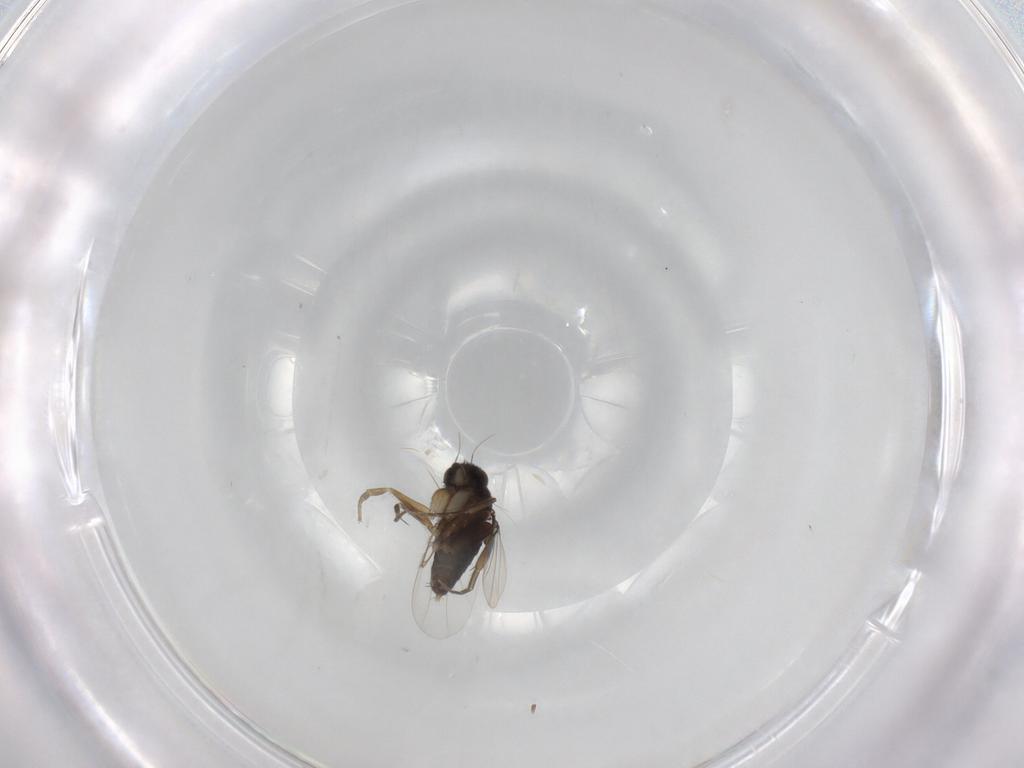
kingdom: Animalia
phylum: Arthropoda
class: Insecta
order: Diptera
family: Phoridae
